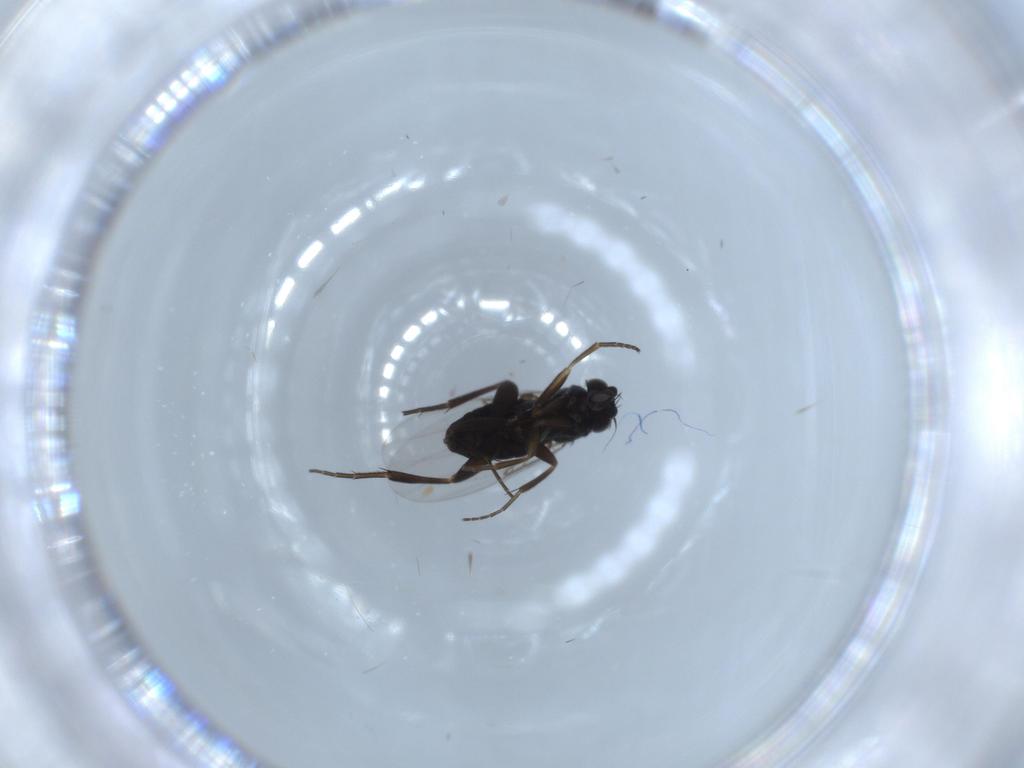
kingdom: Animalia
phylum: Arthropoda
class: Insecta
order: Diptera
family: Phoridae
